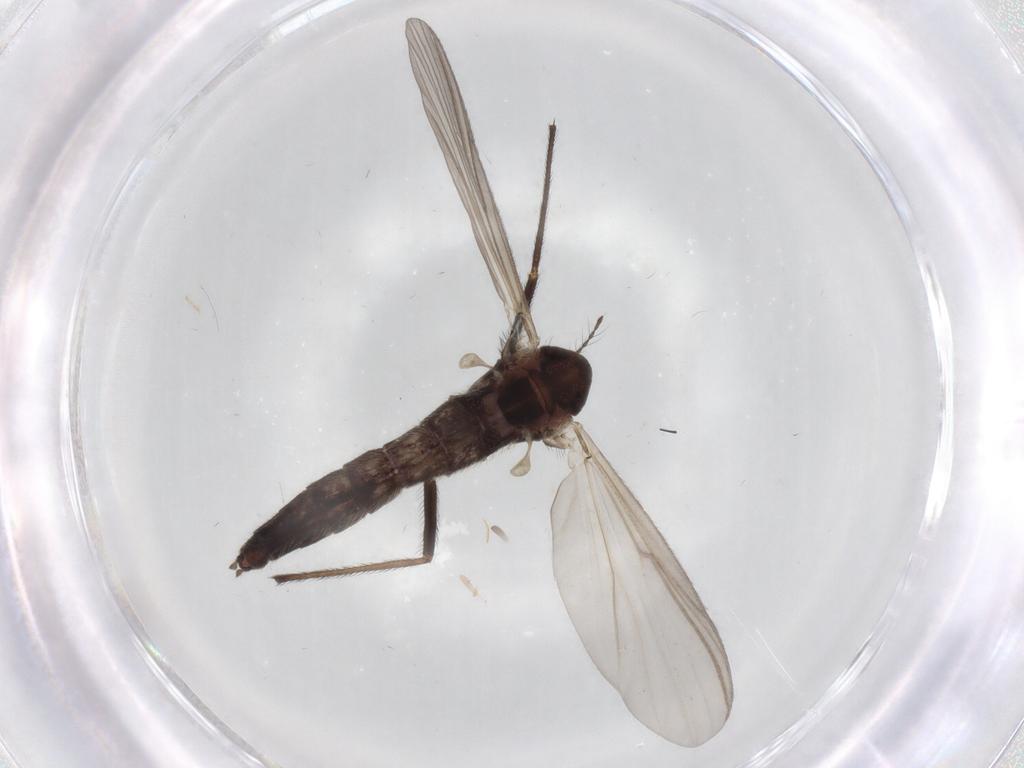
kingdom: Animalia
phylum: Arthropoda
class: Insecta
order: Diptera
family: Chironomidae
